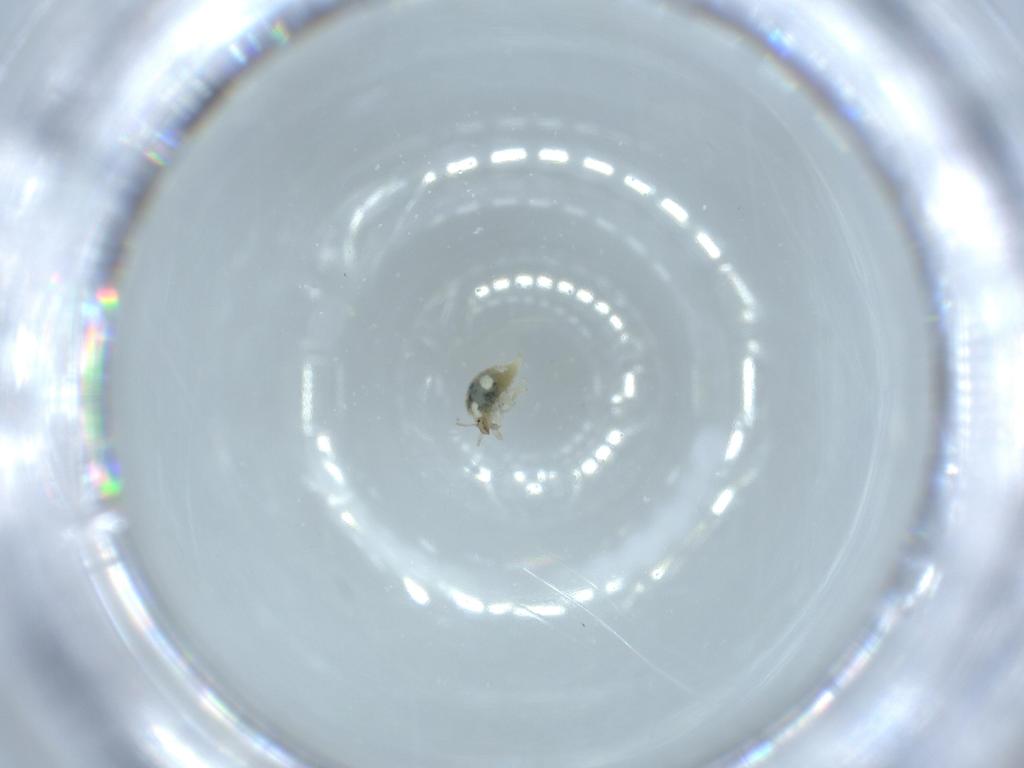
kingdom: Animalia
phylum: Arthropoda
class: Insecta
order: Neuroptera
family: Coniopterygidae
